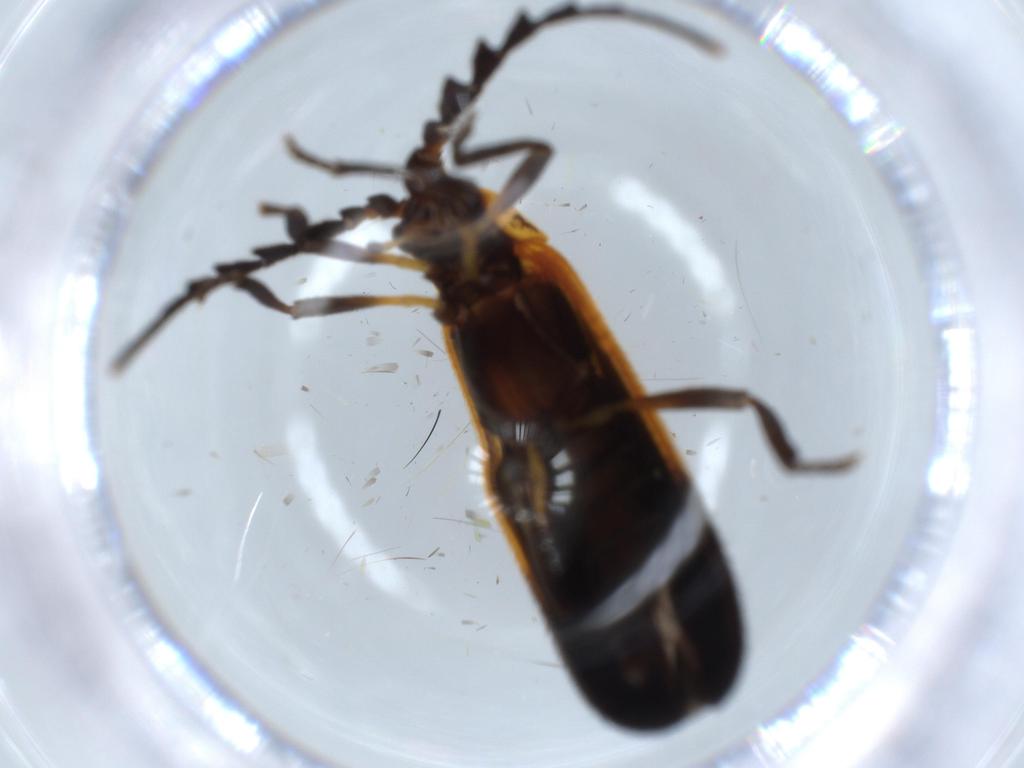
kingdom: Animalia
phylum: Arthropoda
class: Insecta
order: Coleoptera
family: Lycidae
